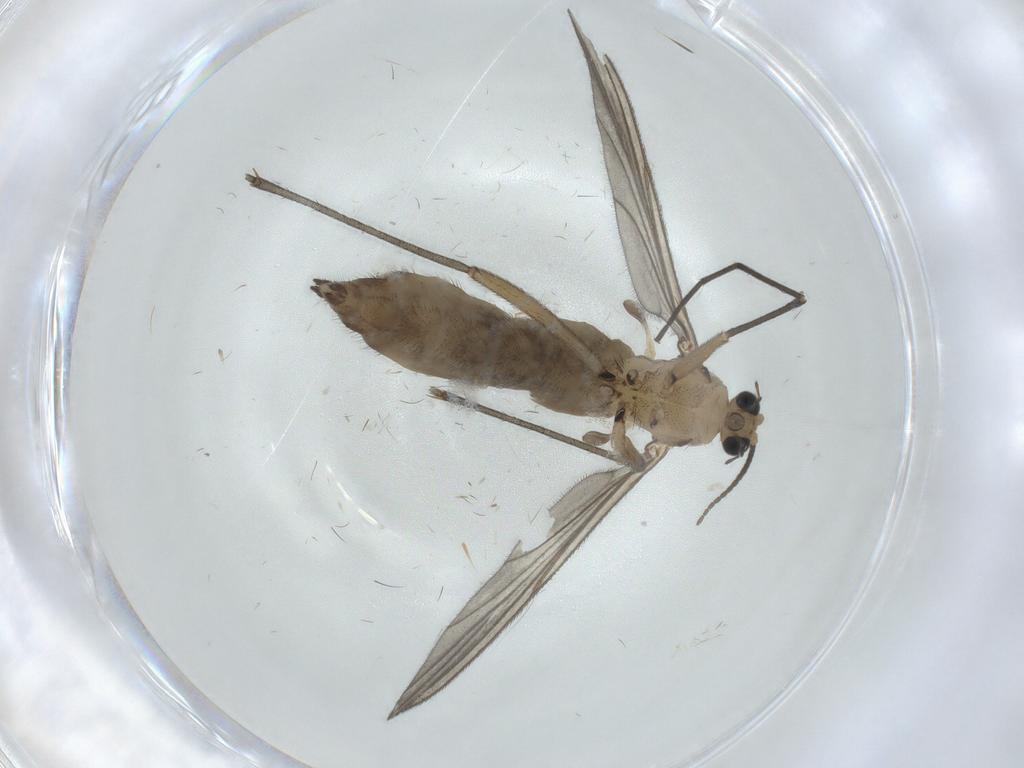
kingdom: Animalia
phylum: Arthropoda
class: Insecta
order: Diptera
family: Sciaridae
